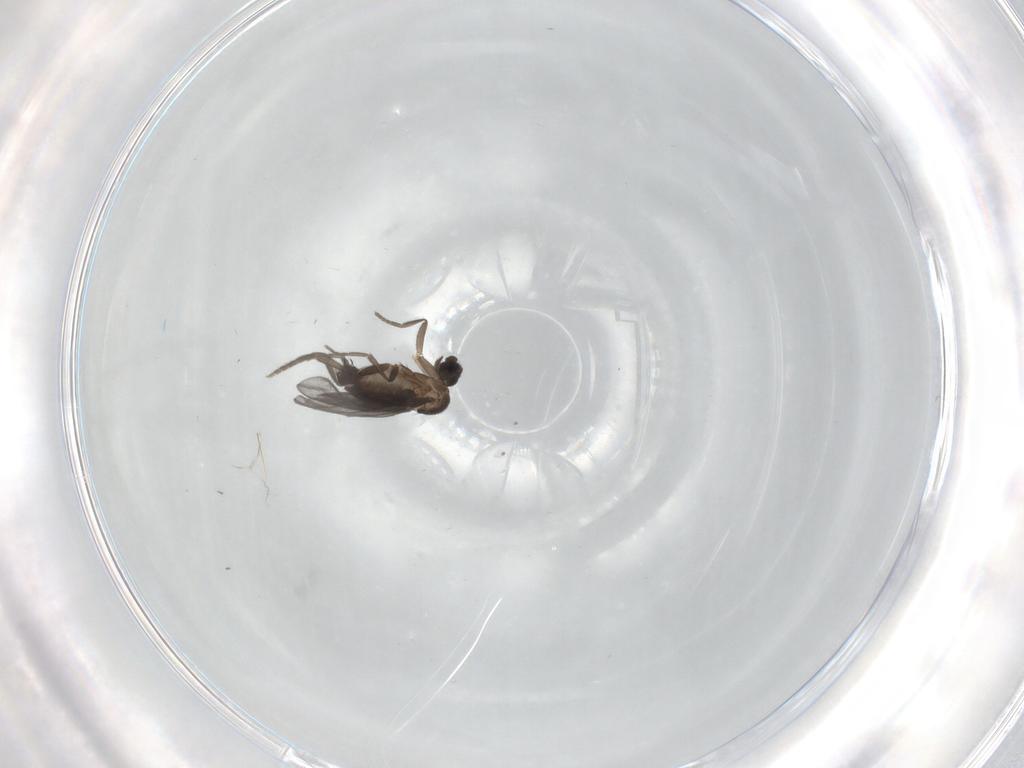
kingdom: Animalia
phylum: Arthropoda
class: Insecta
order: Diptera
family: Phoridae
